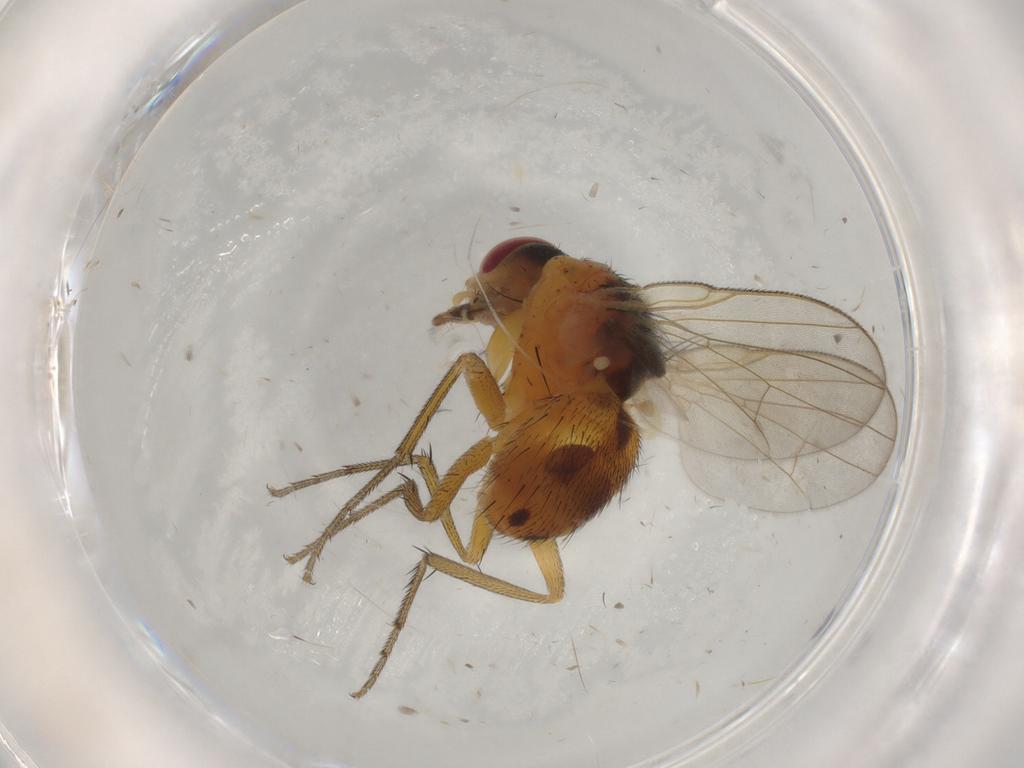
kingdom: Animalia
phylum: Arthropoda
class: Insecta
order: Diptera
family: Muscidae
